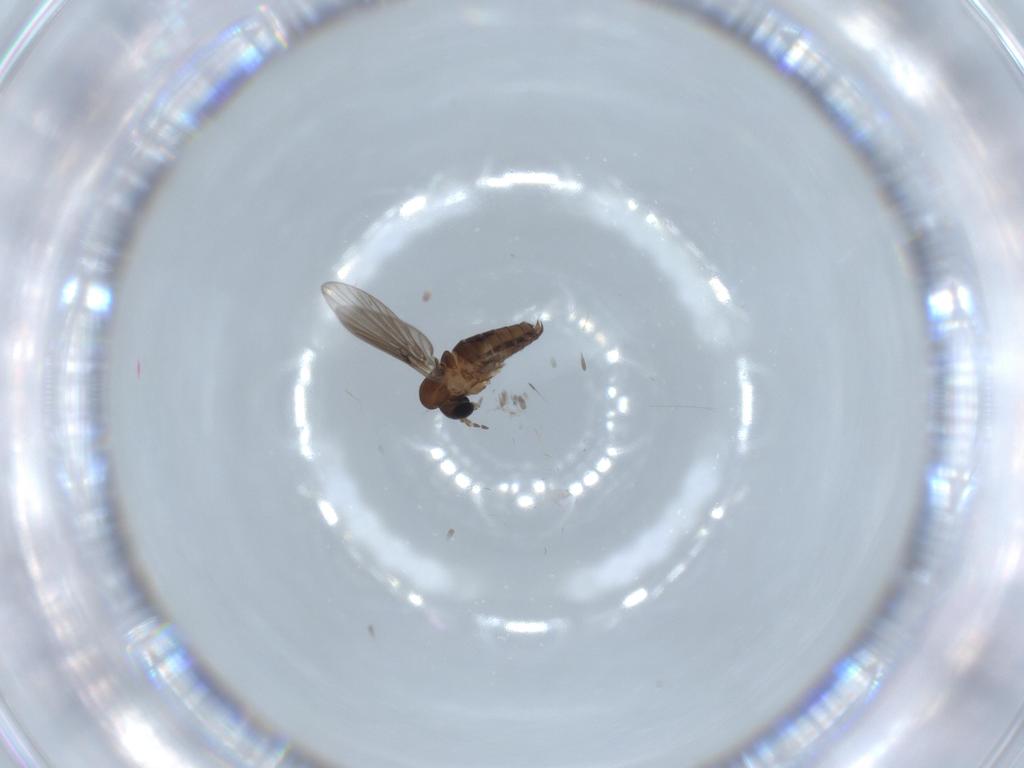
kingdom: Animalia
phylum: Arthropoda
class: Insecta
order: Diptera
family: Psychodidae
